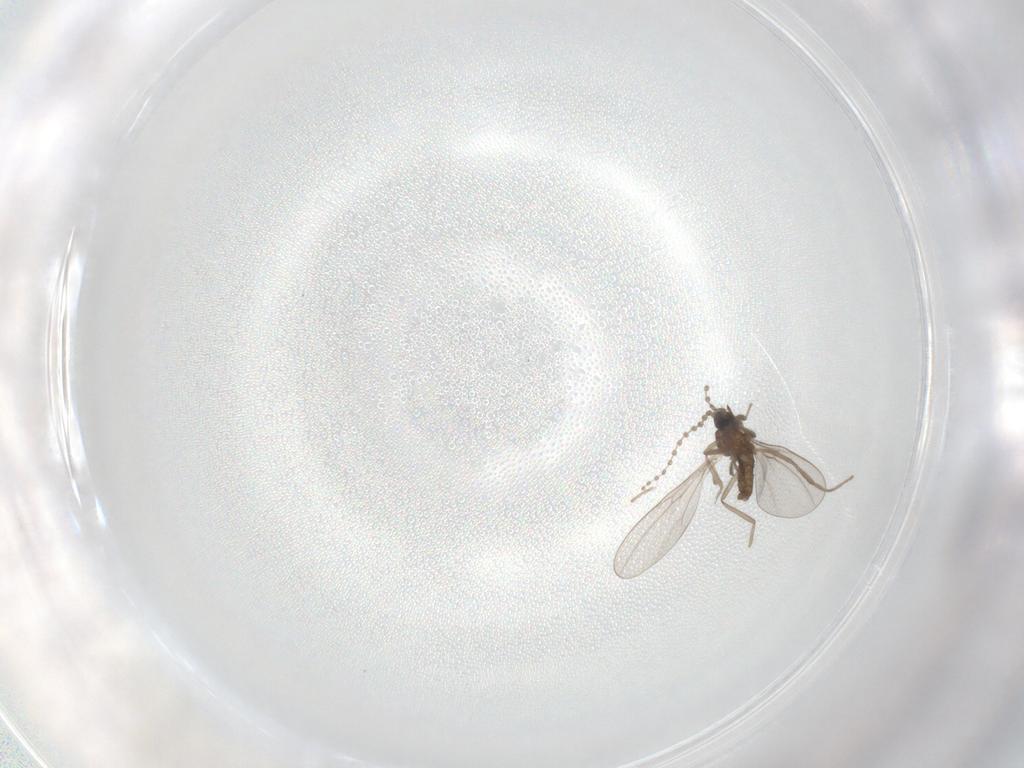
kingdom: Animalia
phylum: Arthropoda
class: Insecta
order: Diptera
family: Cecidomyiidae
